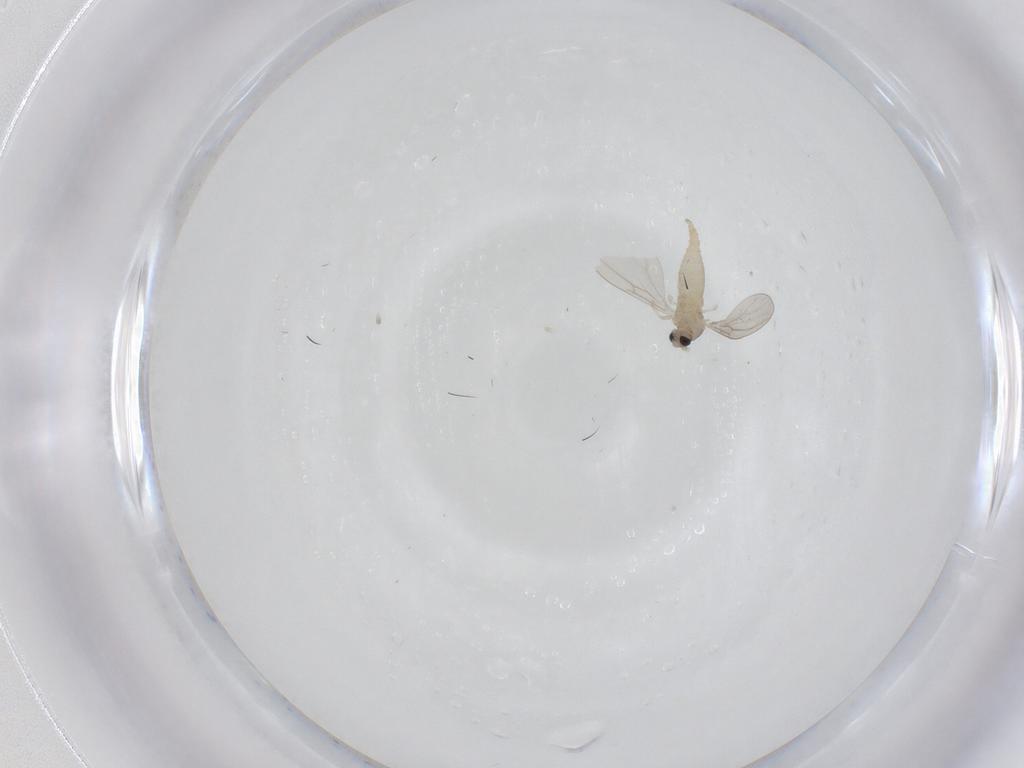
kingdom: Animalia
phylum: Arthropoda
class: Insecta
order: Diptera
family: Cecidomyiidae
